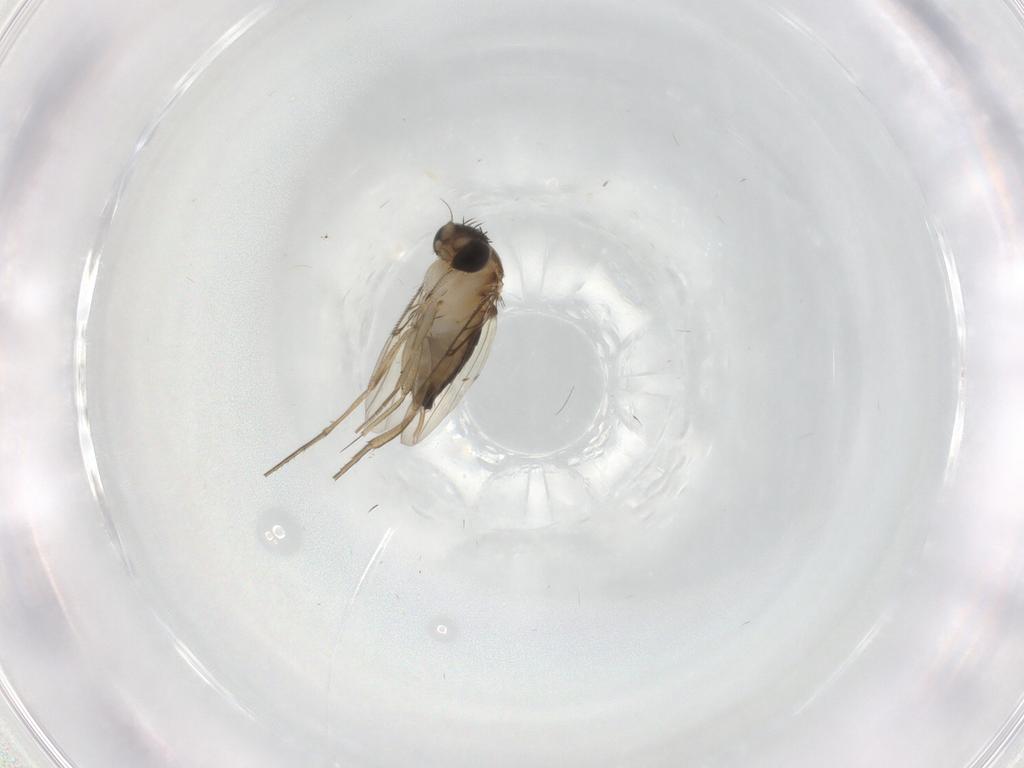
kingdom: Animalia
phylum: Arthropoda
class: Insecta
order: Diptera
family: Phoridae
